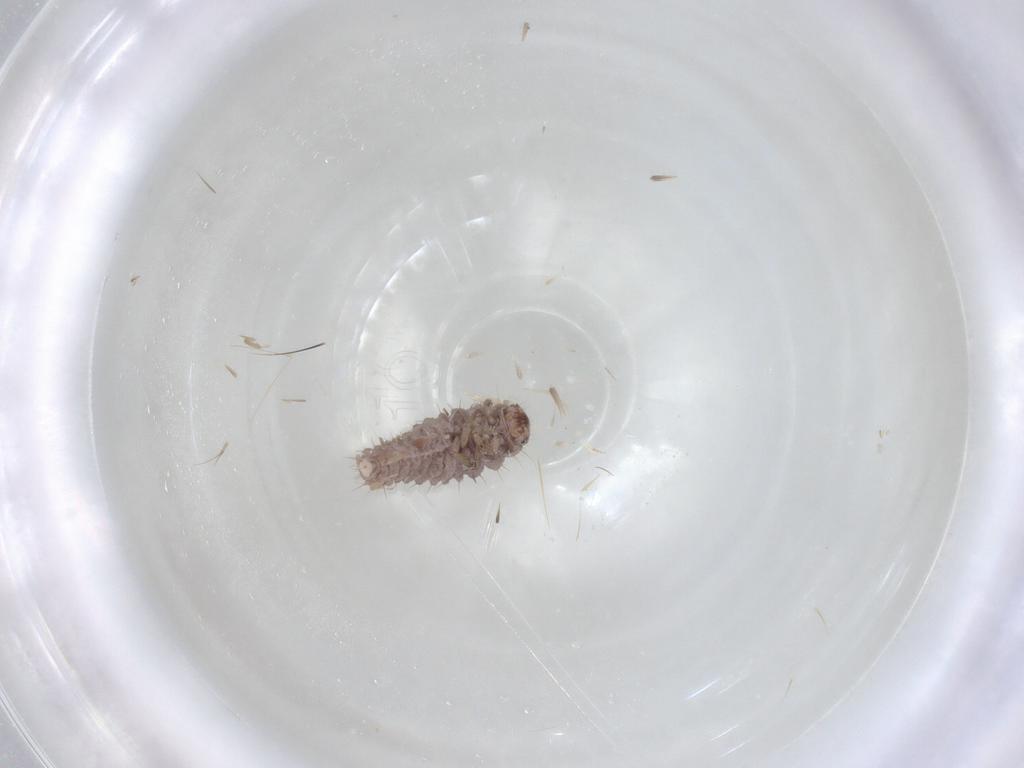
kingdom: Animalia
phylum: Arthropoda
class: Insecta
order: Coleoptera
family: Coccinellidae
